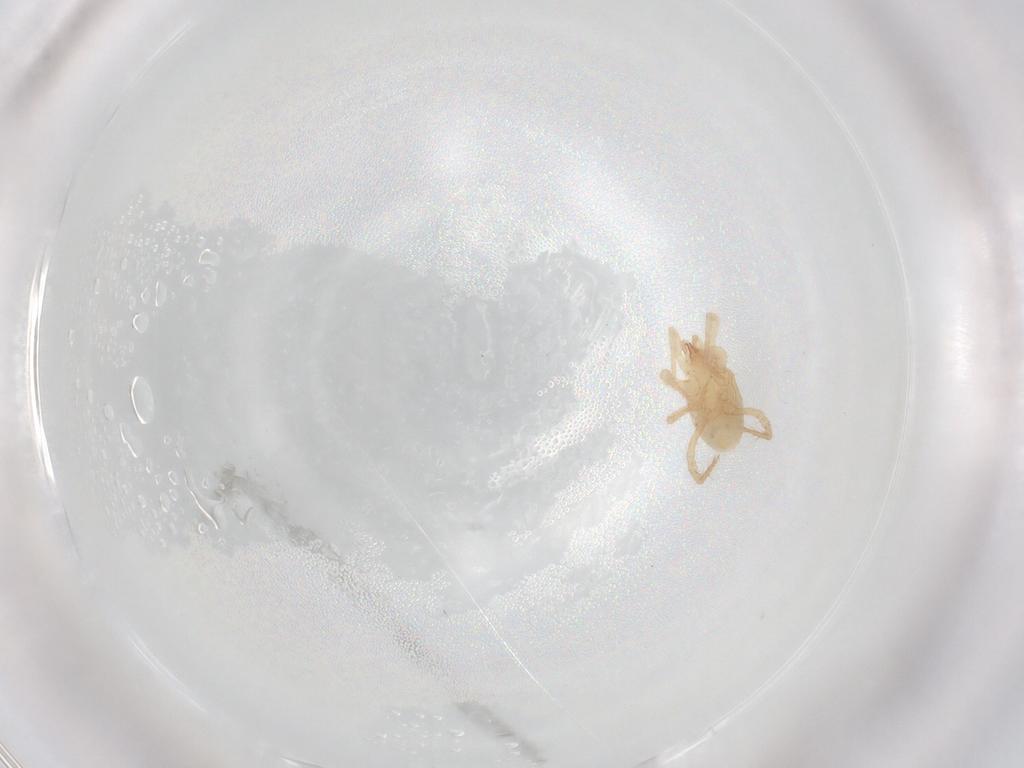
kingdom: Animalia
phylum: Arthropoda
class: Arachnida
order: Mesostigmata
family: Parasitidae
